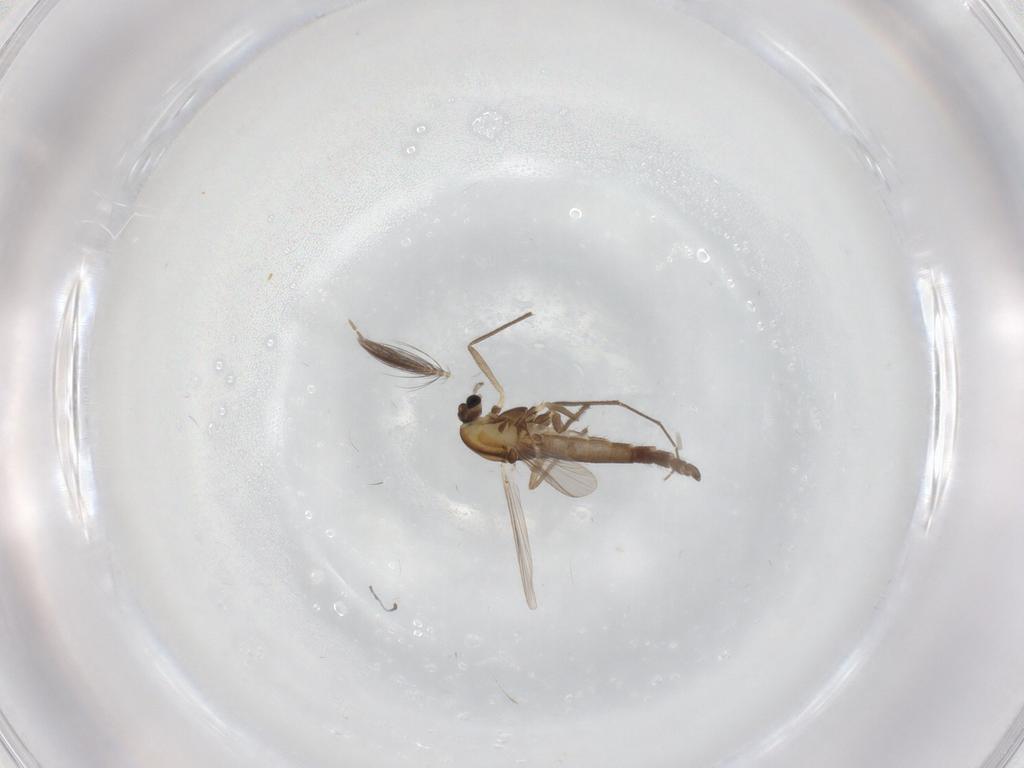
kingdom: Animalia
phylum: Arthropoda
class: Insecta
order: Diptera
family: Chironomidae
